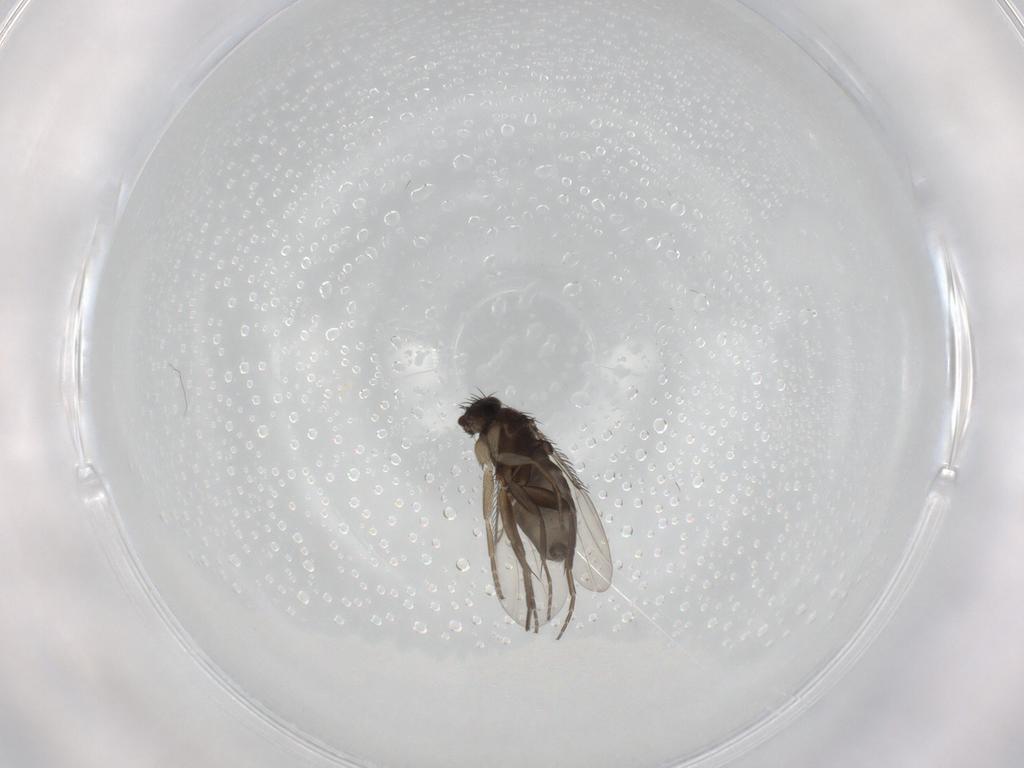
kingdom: Animalia
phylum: Arthropoda
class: Insecta
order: Diptera
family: Phoridae
